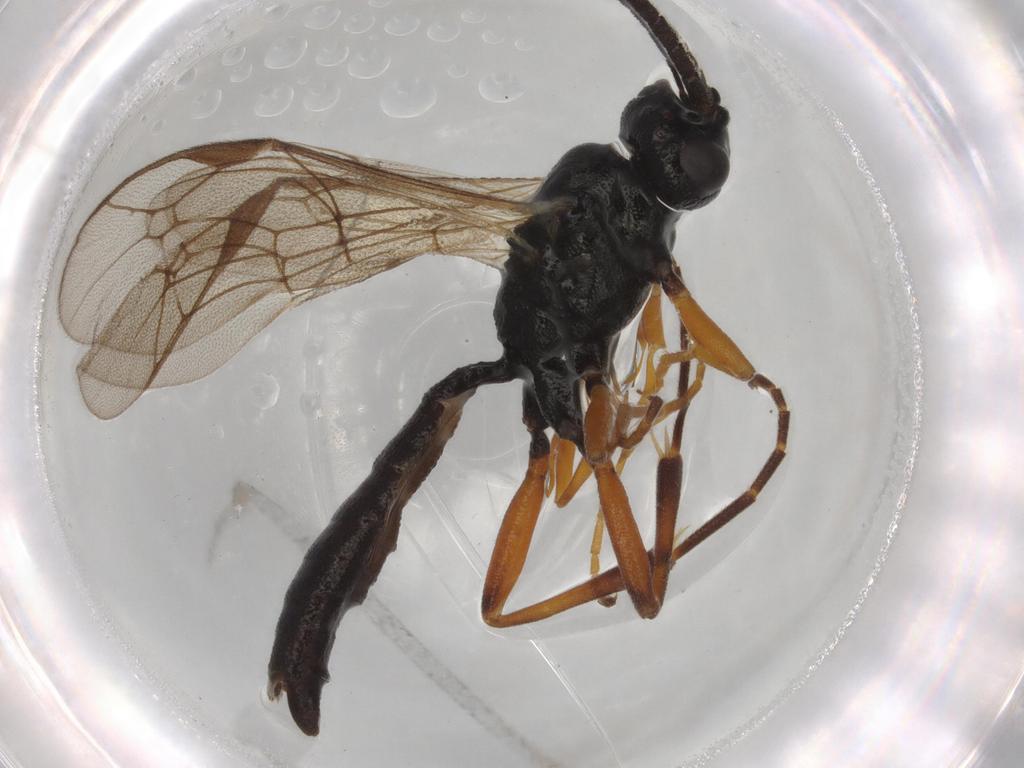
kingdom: Animalia
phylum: Arthropoda
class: Insecta
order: Hymenoptera
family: Ichneumonidae
